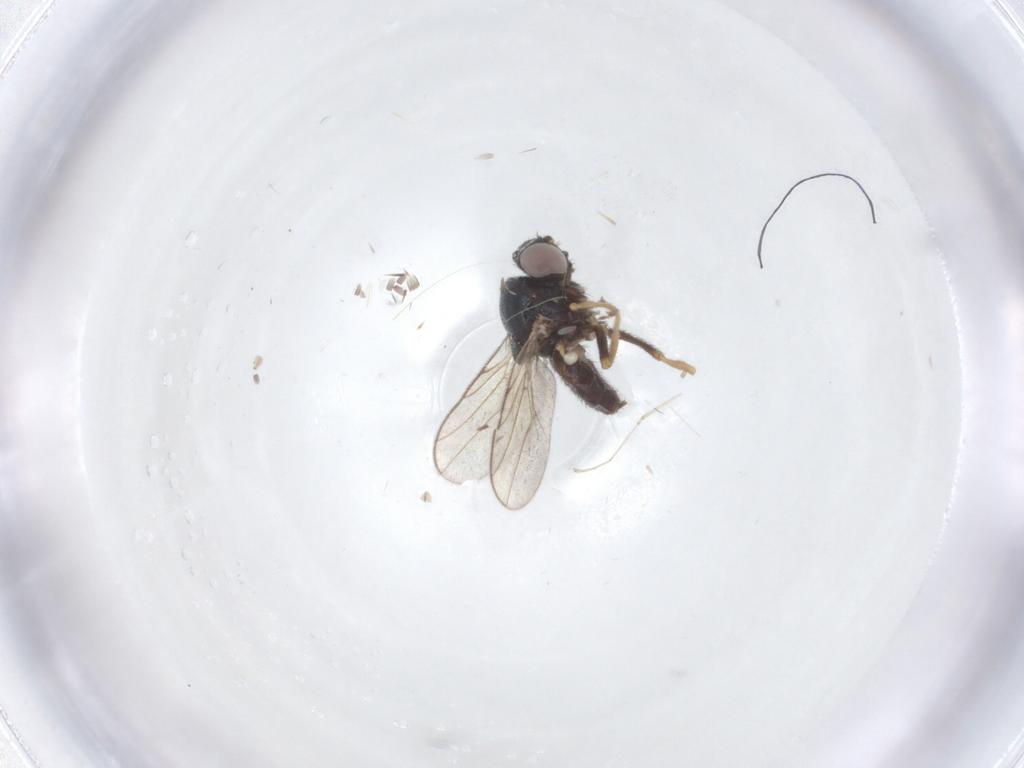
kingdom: Animalia
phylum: Arthropoda
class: Insecta
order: Diptera
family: Chloropidae
